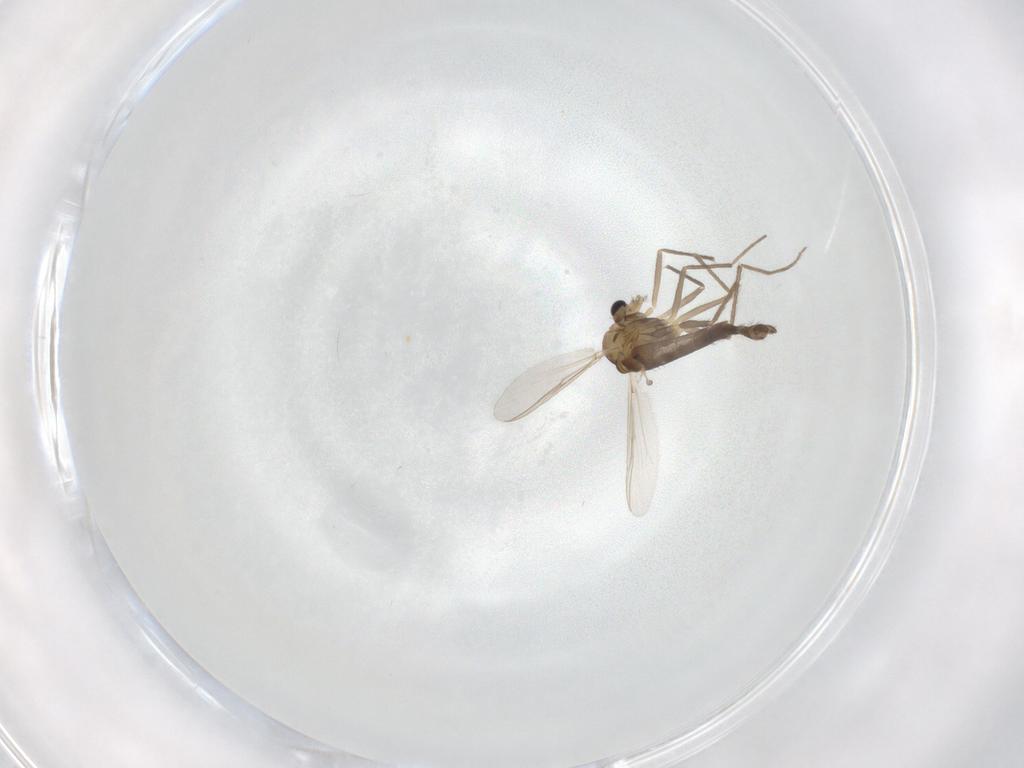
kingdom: Animalia
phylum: Arthropoda
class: Insecta
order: Diptera
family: Chironomidae
